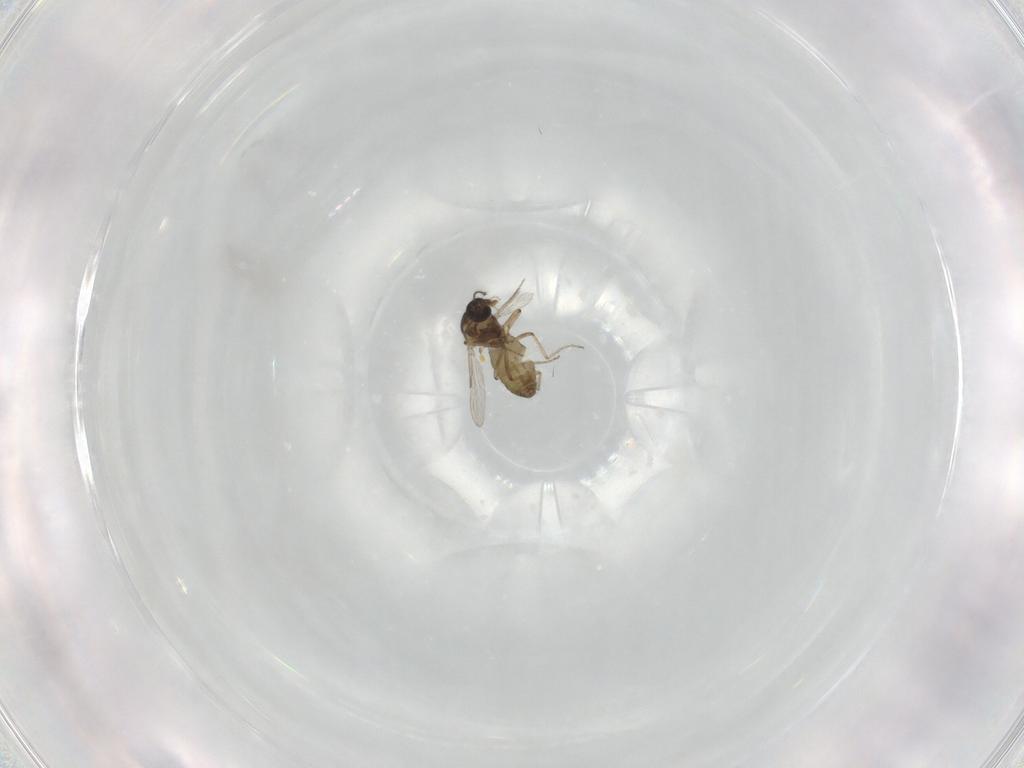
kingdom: Animalia
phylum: Arthropoda
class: Insecta
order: Diptera
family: Ceratopogonidae
